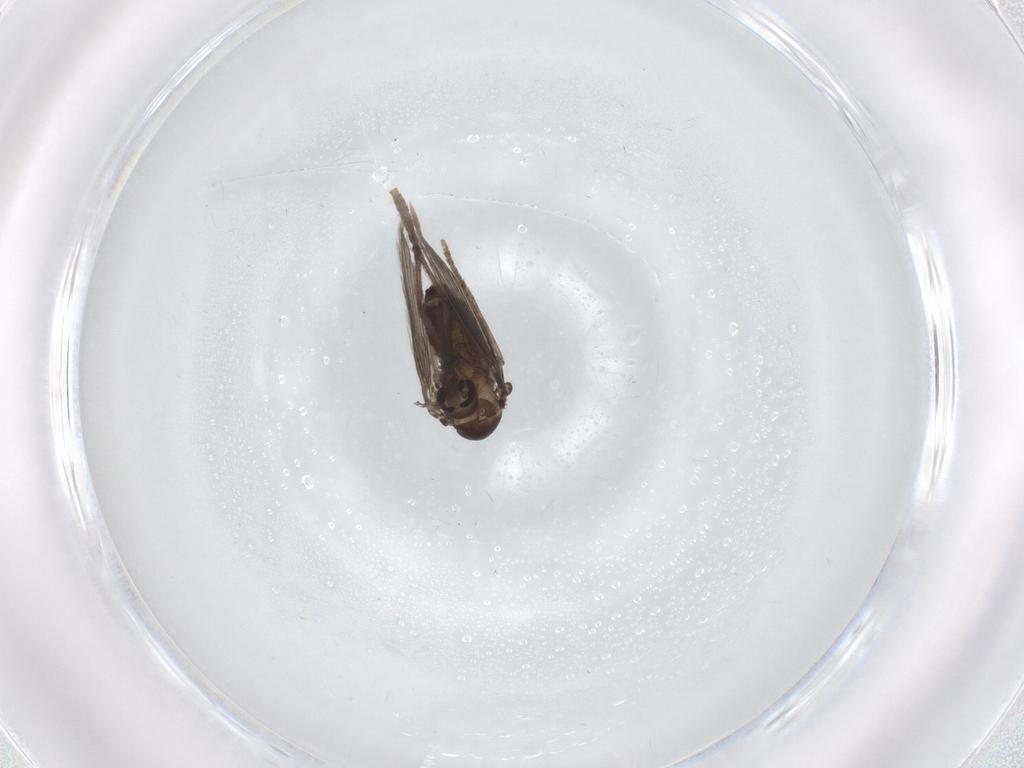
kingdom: Animalia
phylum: Arthropoda
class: Insecta
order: Diptera
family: Psychodidae
